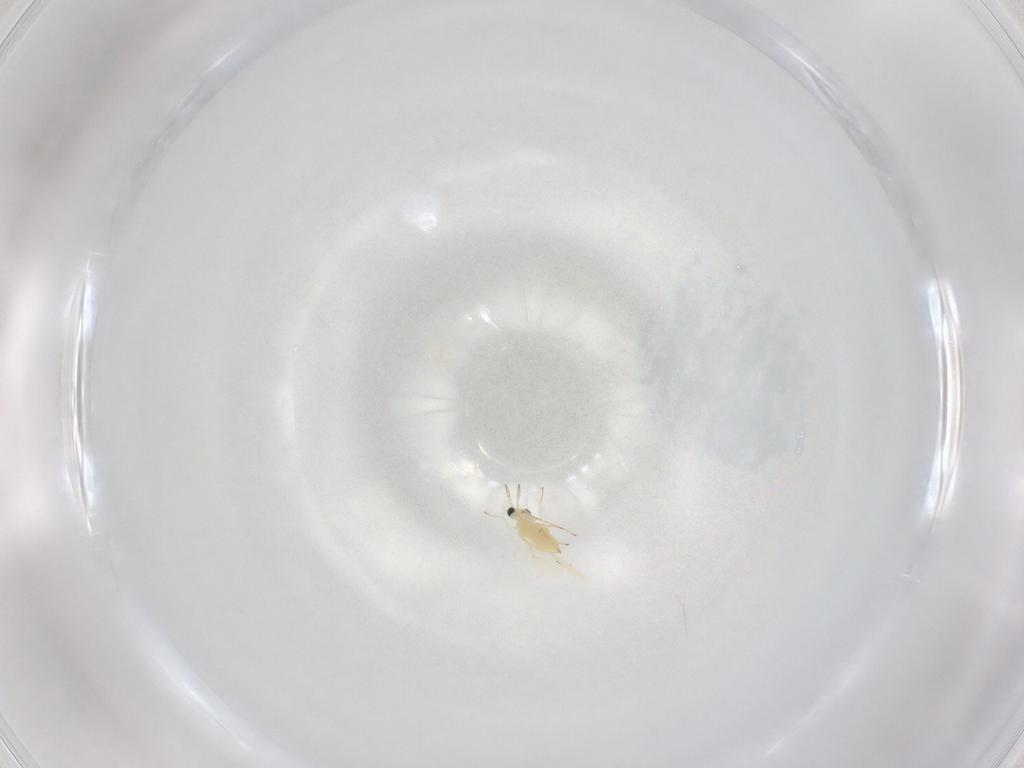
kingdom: Animalia
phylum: Arthropoda
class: Insecta
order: Hymenoptera
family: Trichogrammatidae
